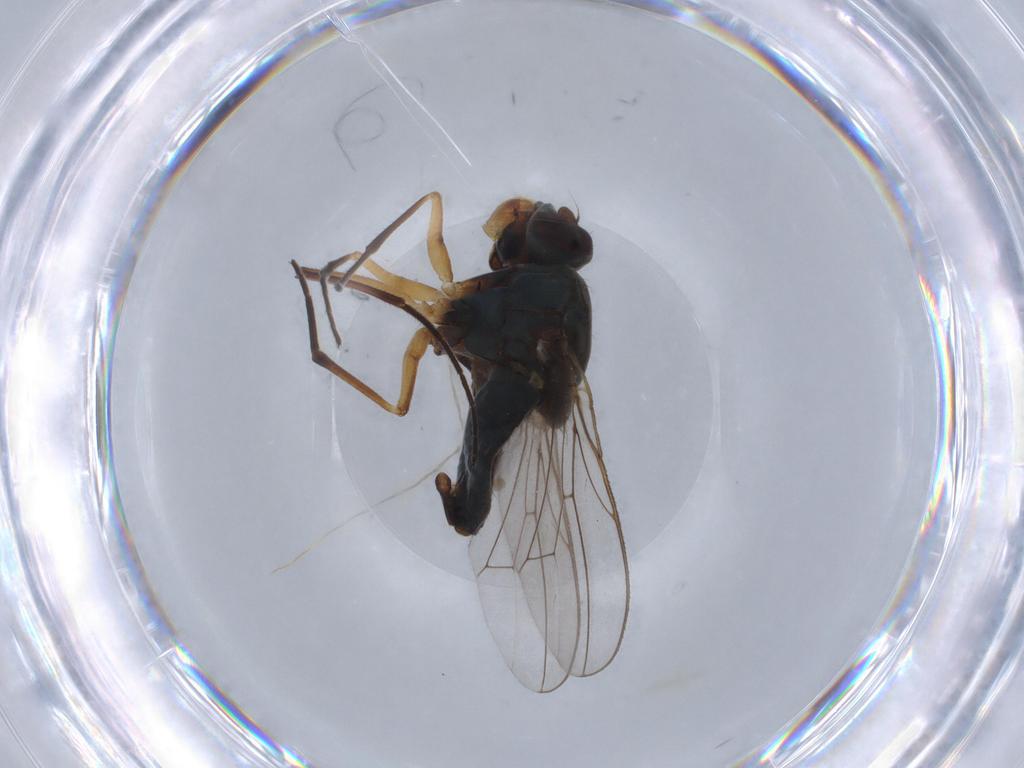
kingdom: Animalia
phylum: Arthropoda
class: Insecta
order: Diptera
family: Ephydridae
